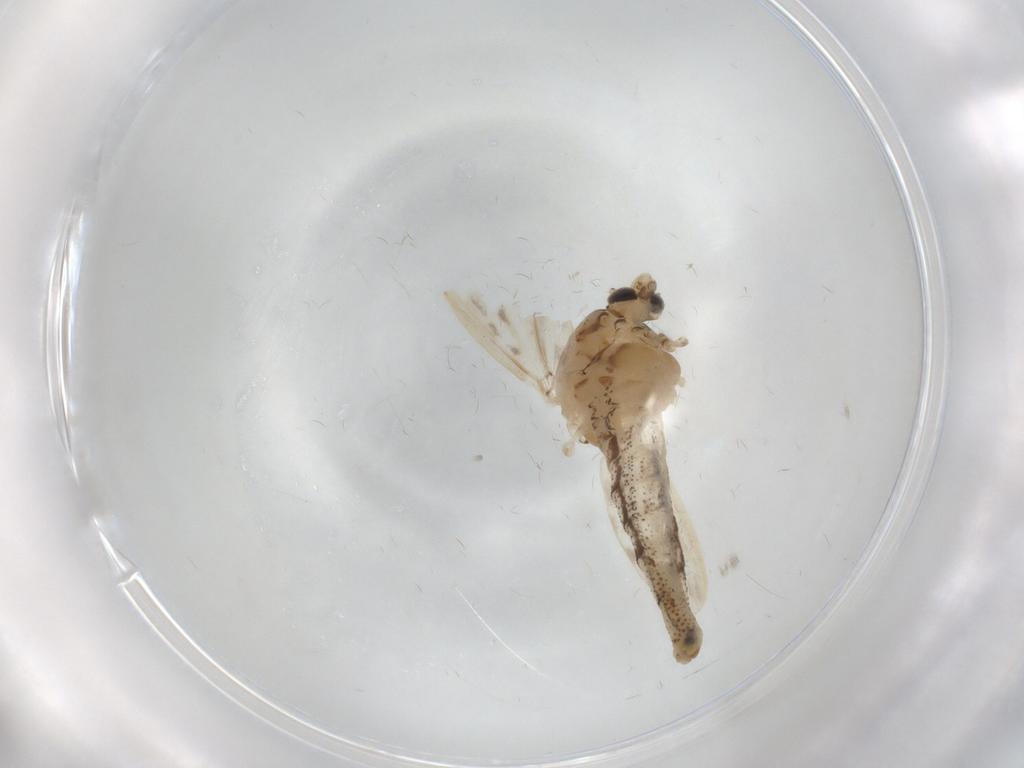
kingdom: Animalia
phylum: Arthropoda
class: Insecta
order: Diptera
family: Chaoboridae
